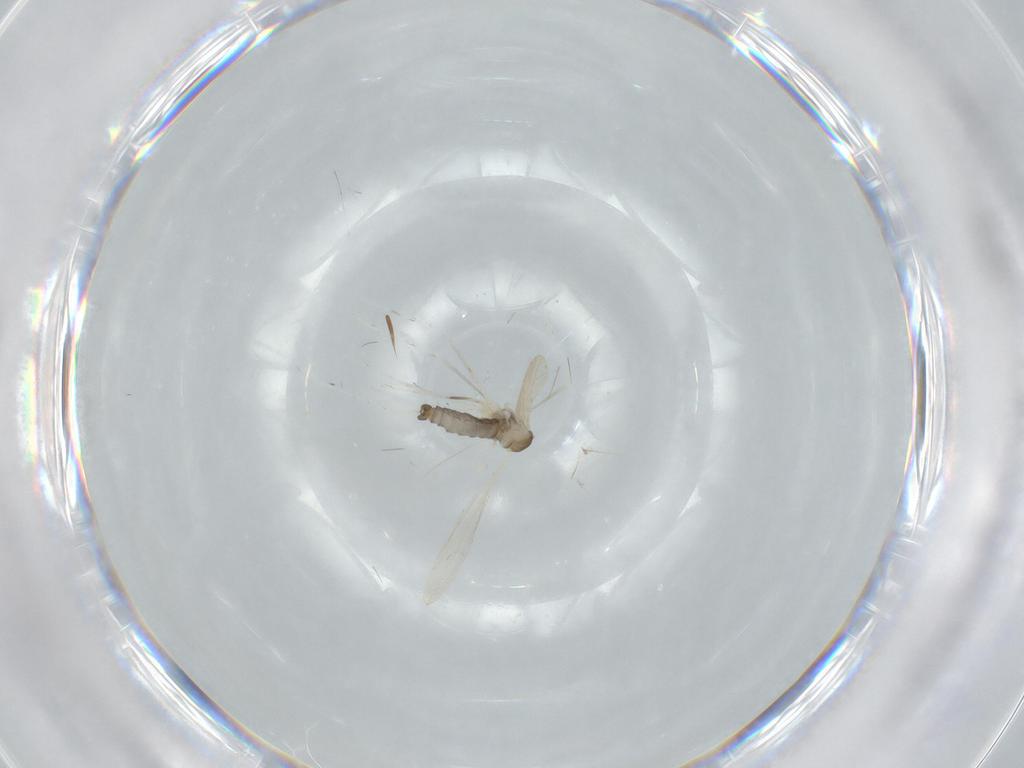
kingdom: Animalia
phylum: Arthropoda
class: Insecta
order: Diptera
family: Cecidomyiidae
